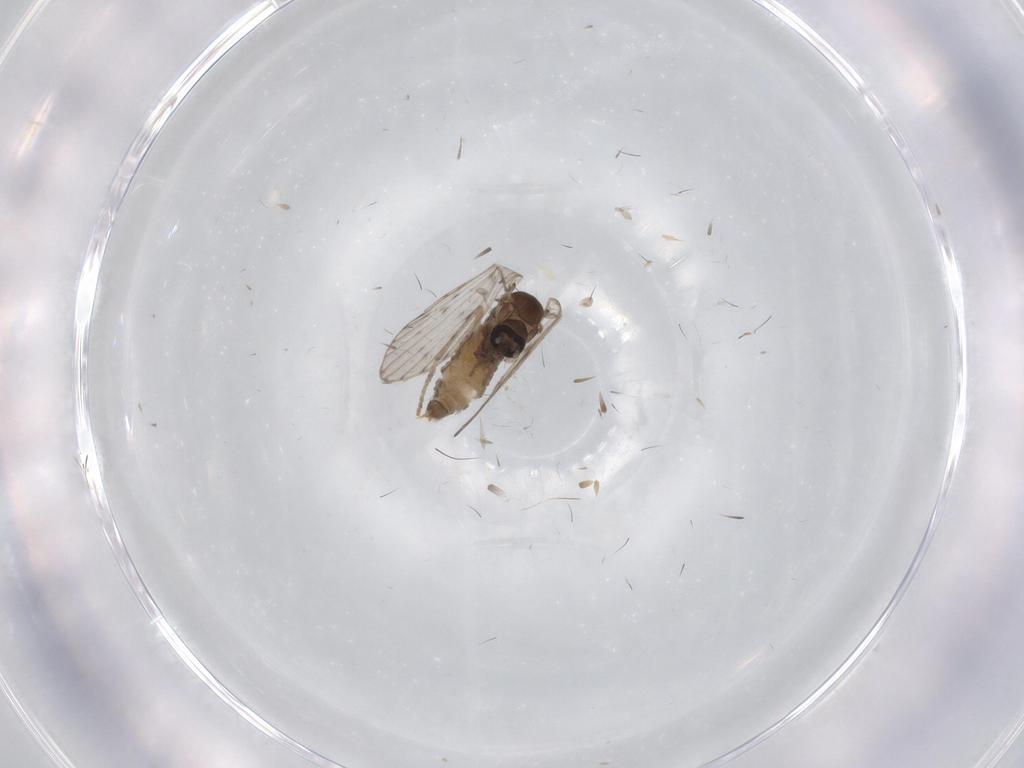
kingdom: Animalia
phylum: Arthropoda
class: Insecta
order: Diptera
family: Psychodidae
